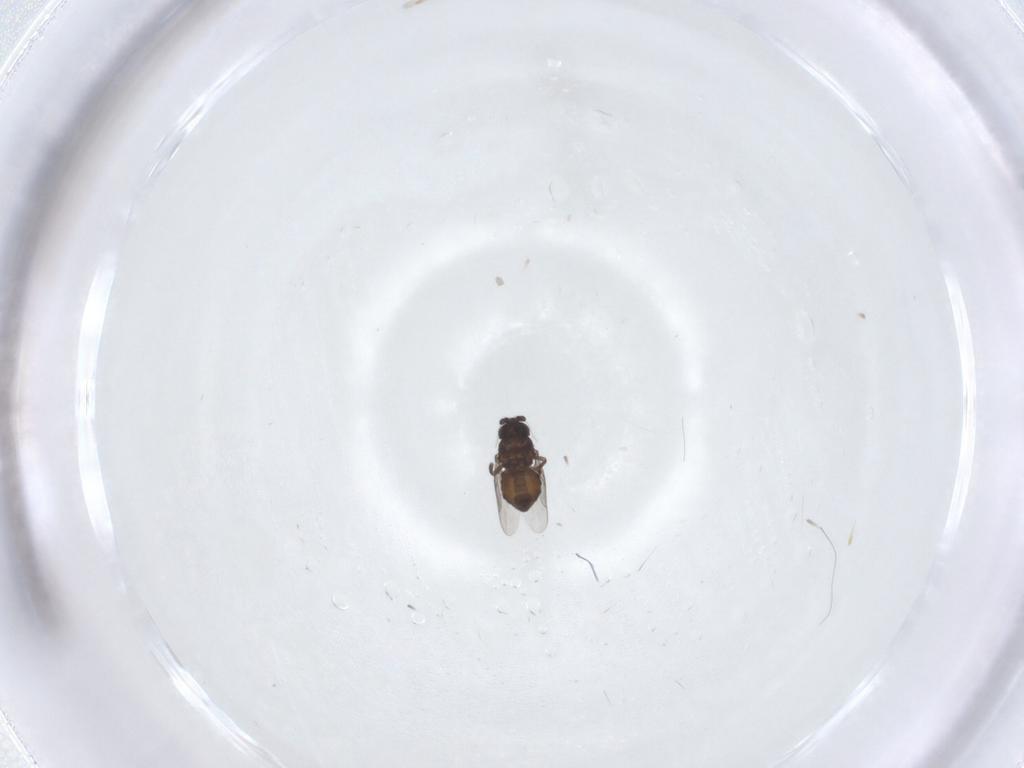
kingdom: Animalia
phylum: Arthropoda
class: Insecta
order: Diptera
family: Sphaeroceridae
